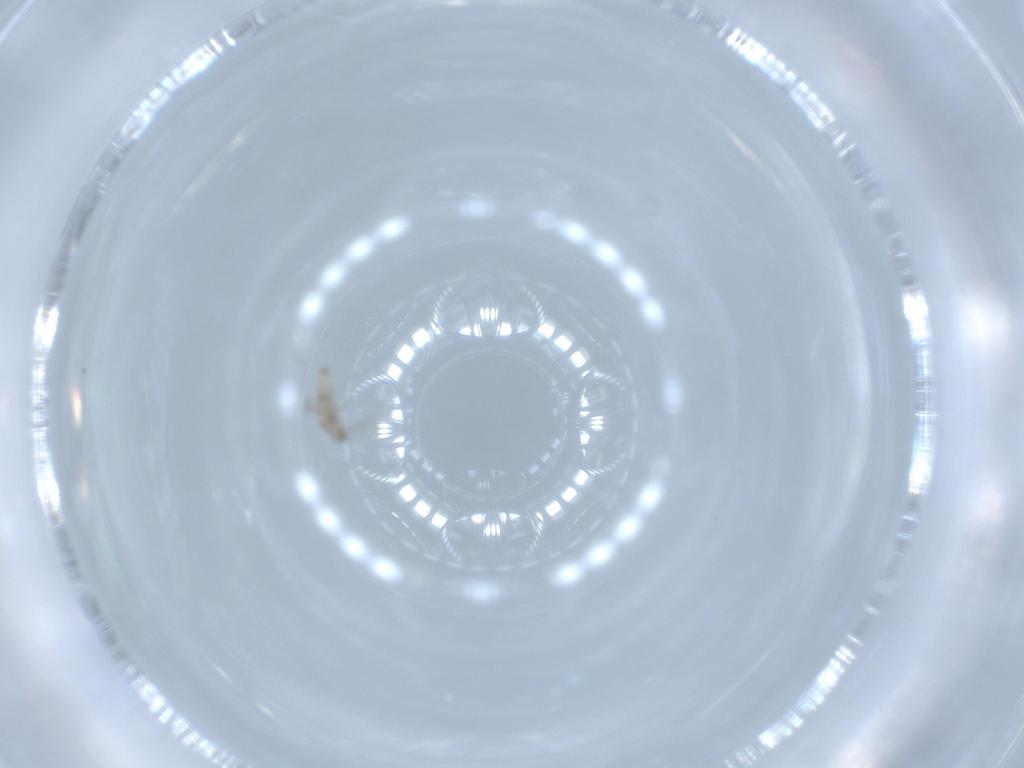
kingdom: Animalia
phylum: Arthropoda
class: Insecta
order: Diptera
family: Cecidomyiidae
